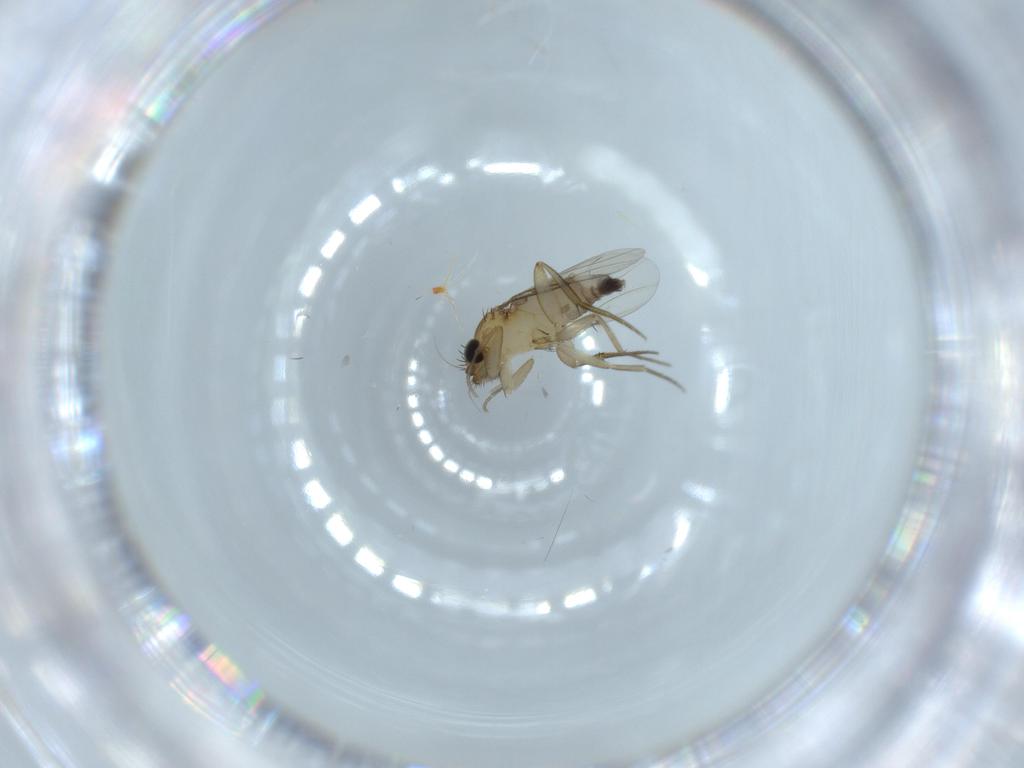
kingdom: Animalia
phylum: Arthropoda
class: Insecta
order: Diptera
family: Phoridae
